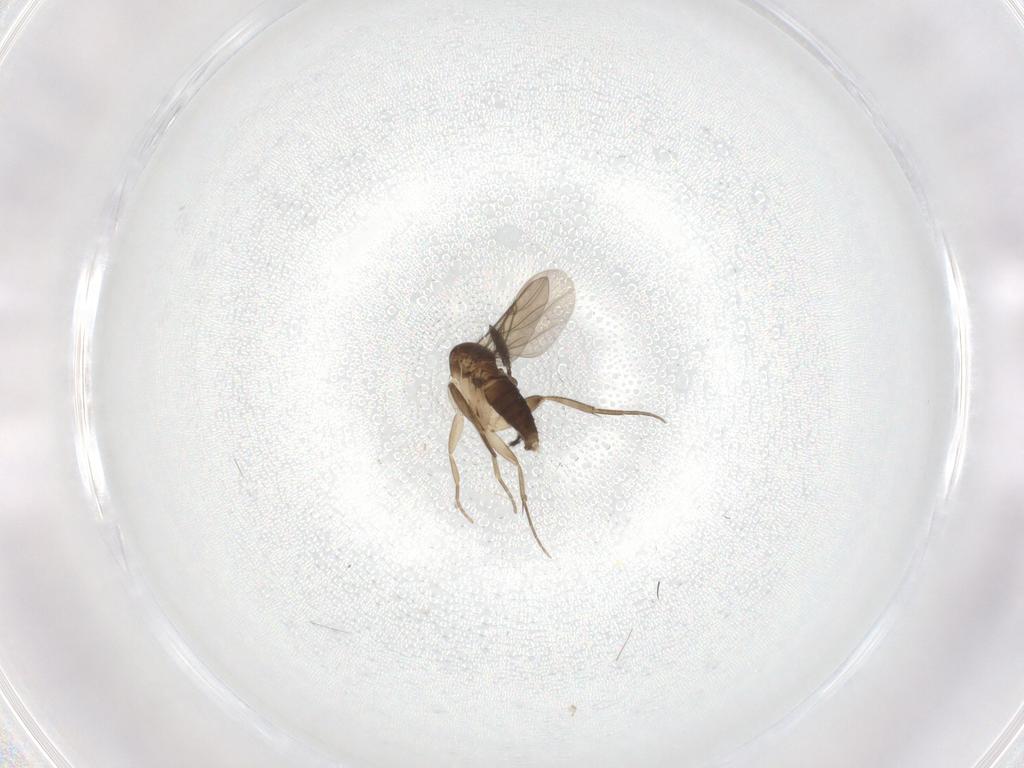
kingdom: Animalia
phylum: Arthropoda
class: Insecta
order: Diptera
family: Phoridae
